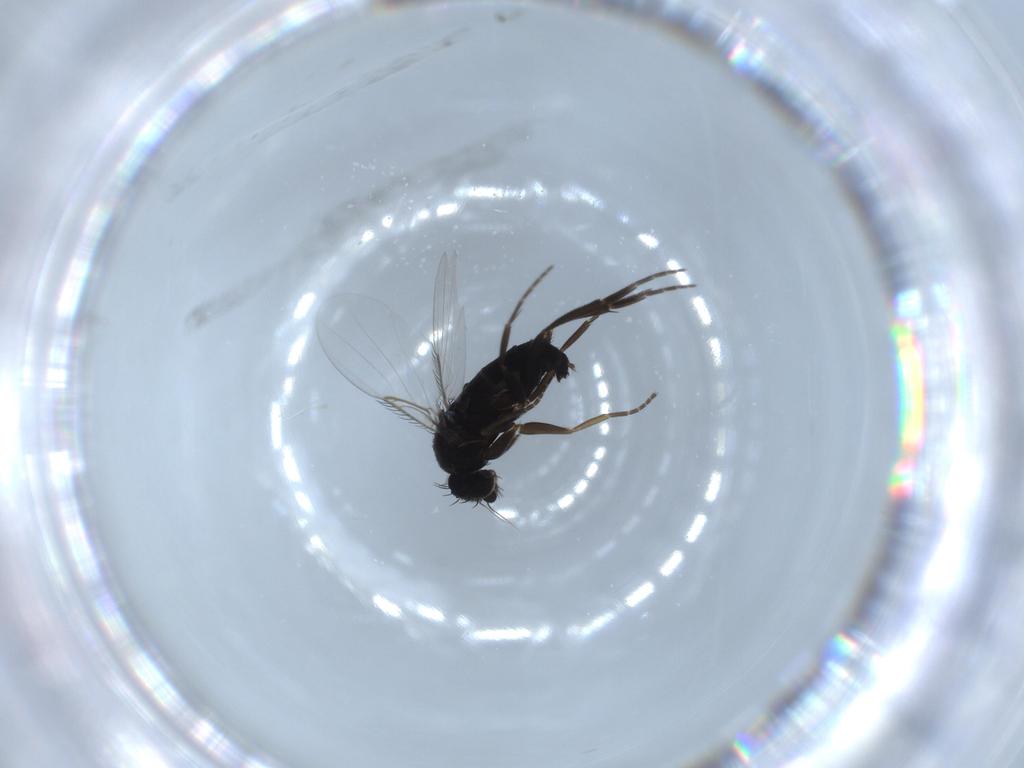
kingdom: Animalia
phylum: Arthropoda
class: Insecta
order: Diptera
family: Phoridae
